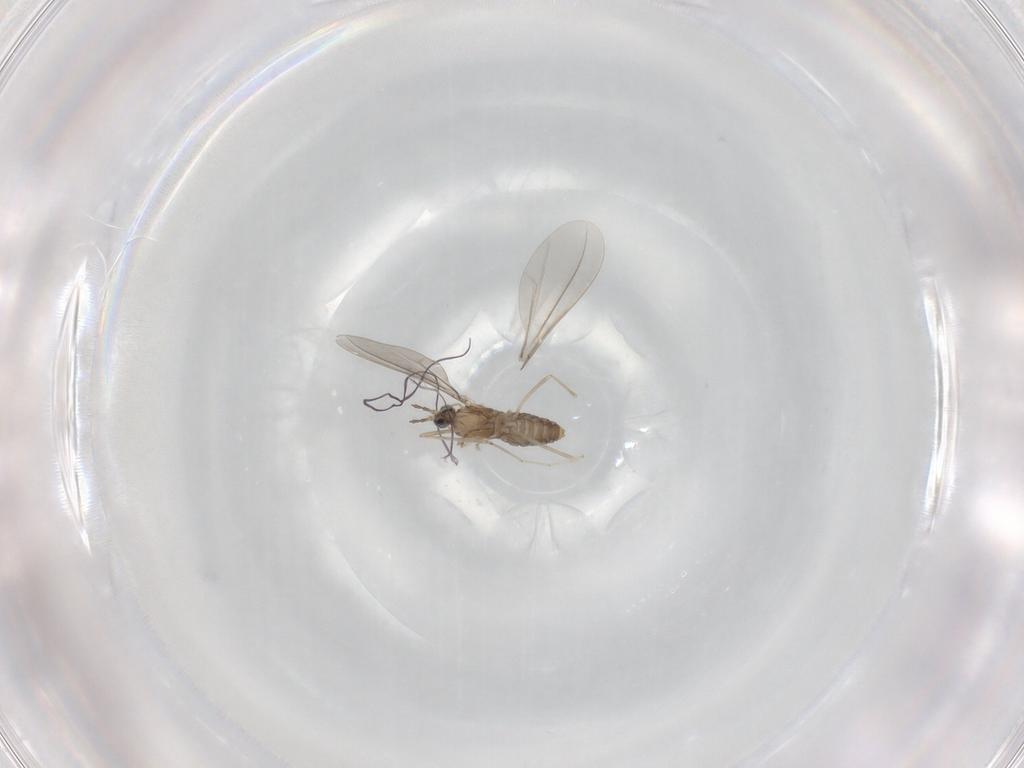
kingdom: Animalia
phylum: Arthropoda
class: Insecta
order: Diptera
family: Cecidomyiidae
